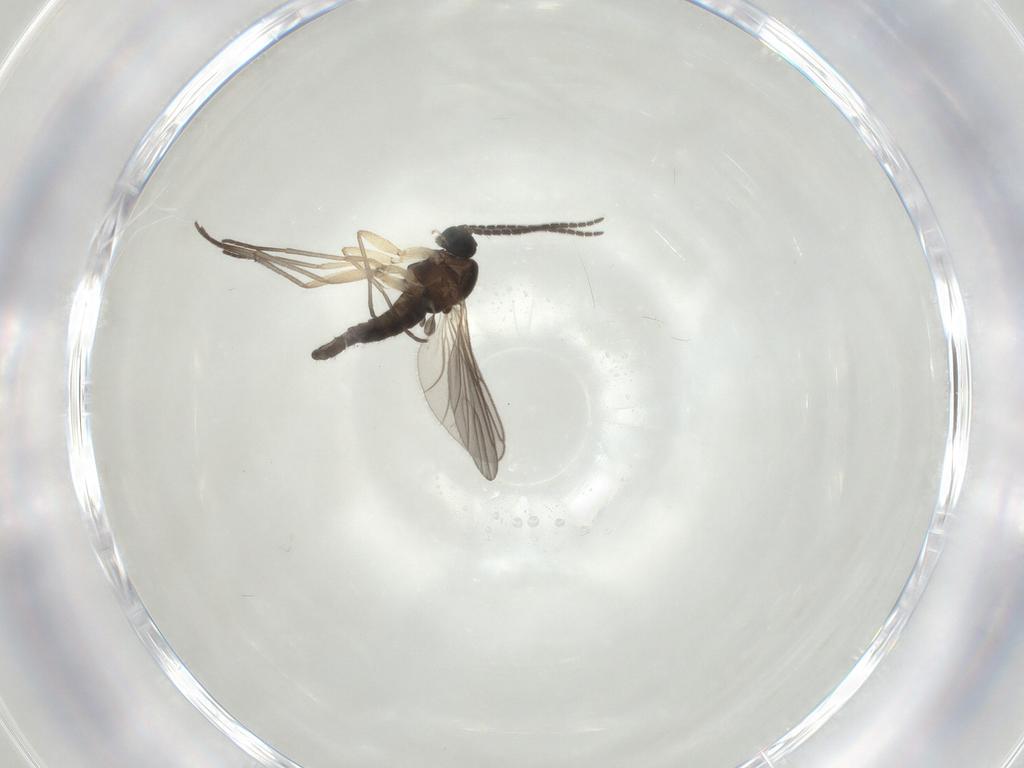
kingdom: Animalia
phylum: Arthropoda
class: Insecta
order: Diptera
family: Sciaridae
